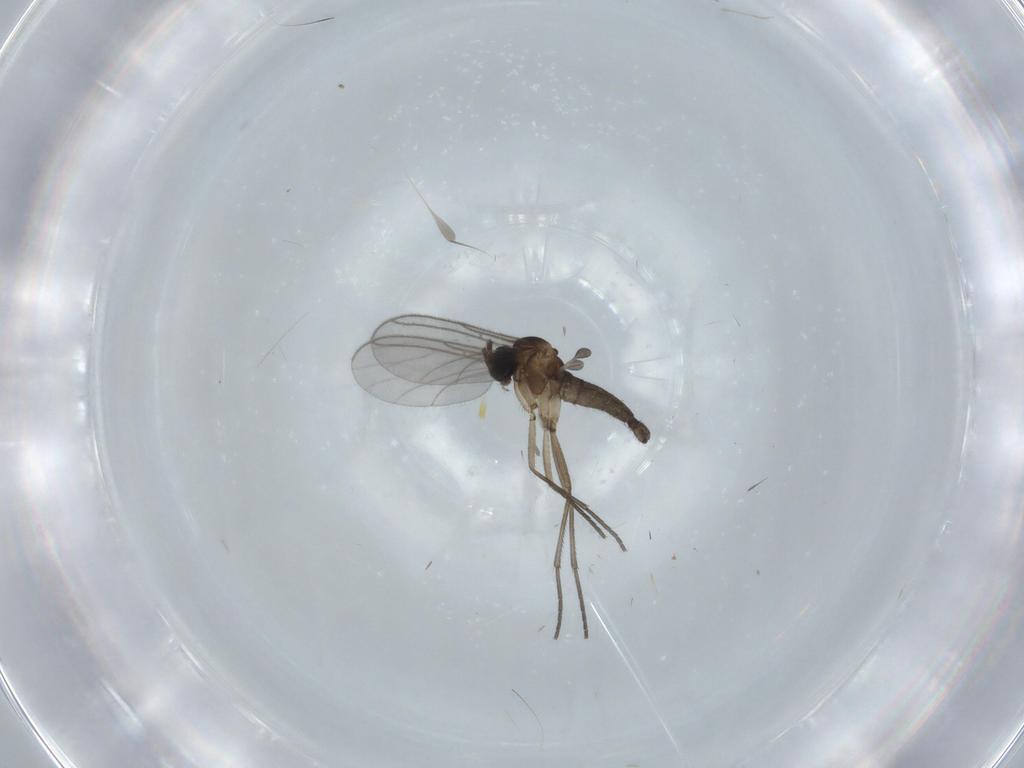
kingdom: Animalia
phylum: Arthropoda
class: Insecta
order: Diptera
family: Sciaridae
